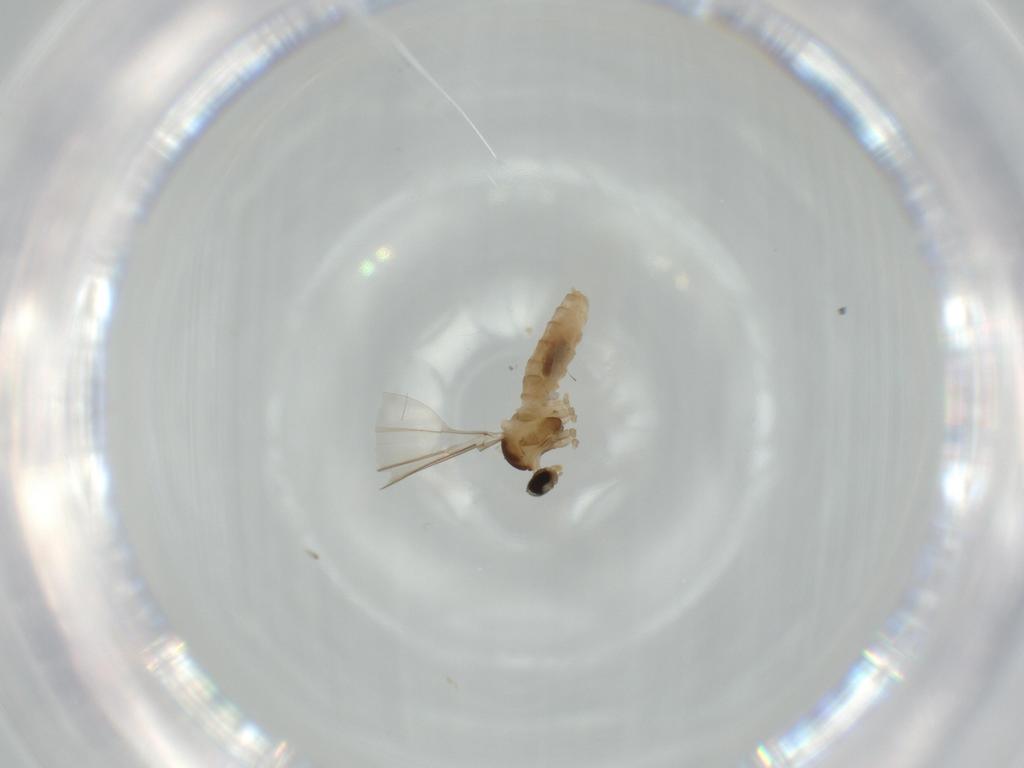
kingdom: Animalia
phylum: Arthropoda
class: Insecta
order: Diptera
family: Cecidomyiidae
